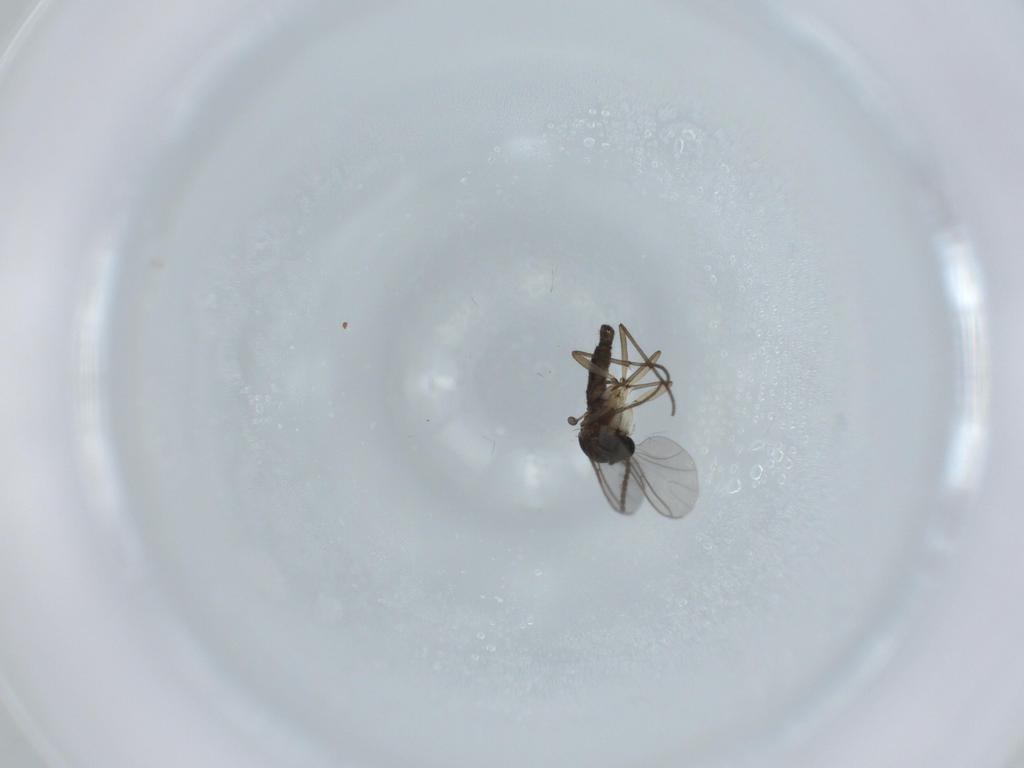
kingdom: Animalia
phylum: Arthropoda
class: Insecta
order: Diptera
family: Sciaridae
